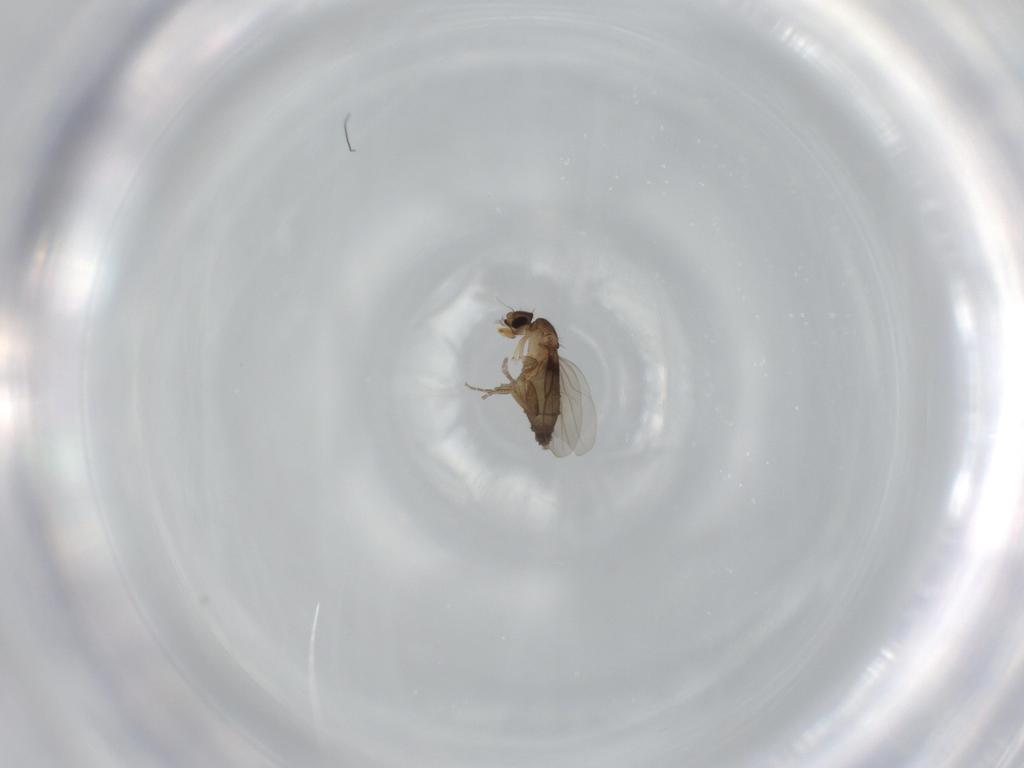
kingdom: Animalia
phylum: Arthropoda
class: Insecta
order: Diptera
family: Phoridae
